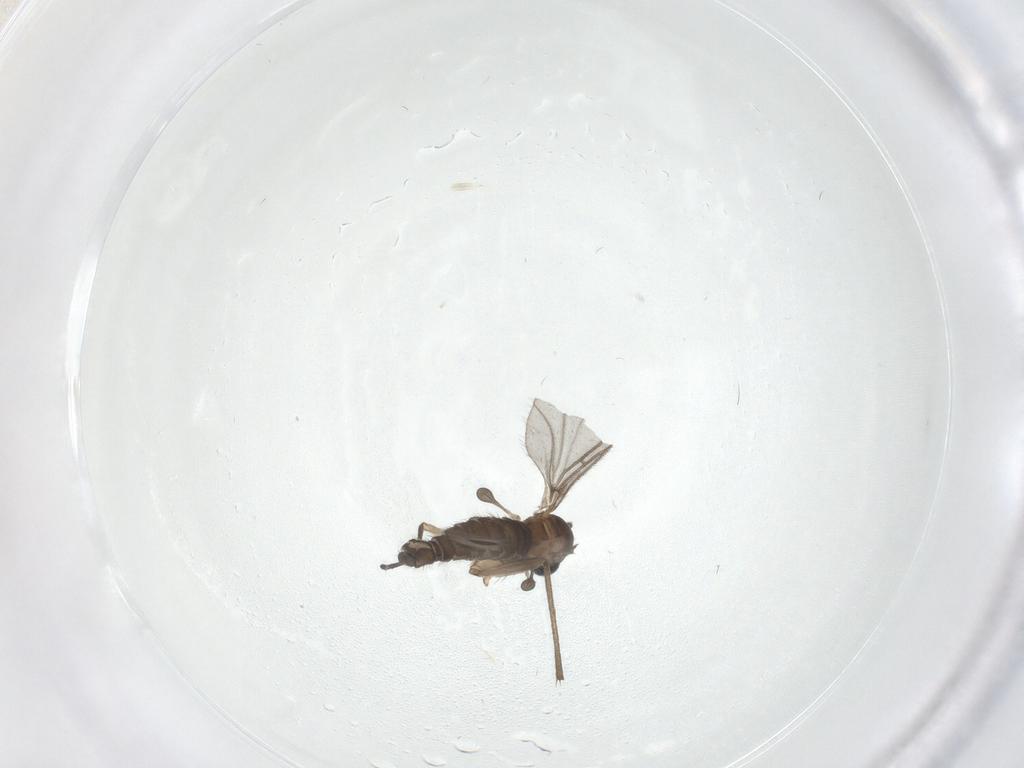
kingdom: Animalia
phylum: Arthropoda
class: Insecta
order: Diptera
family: Sciaridae
